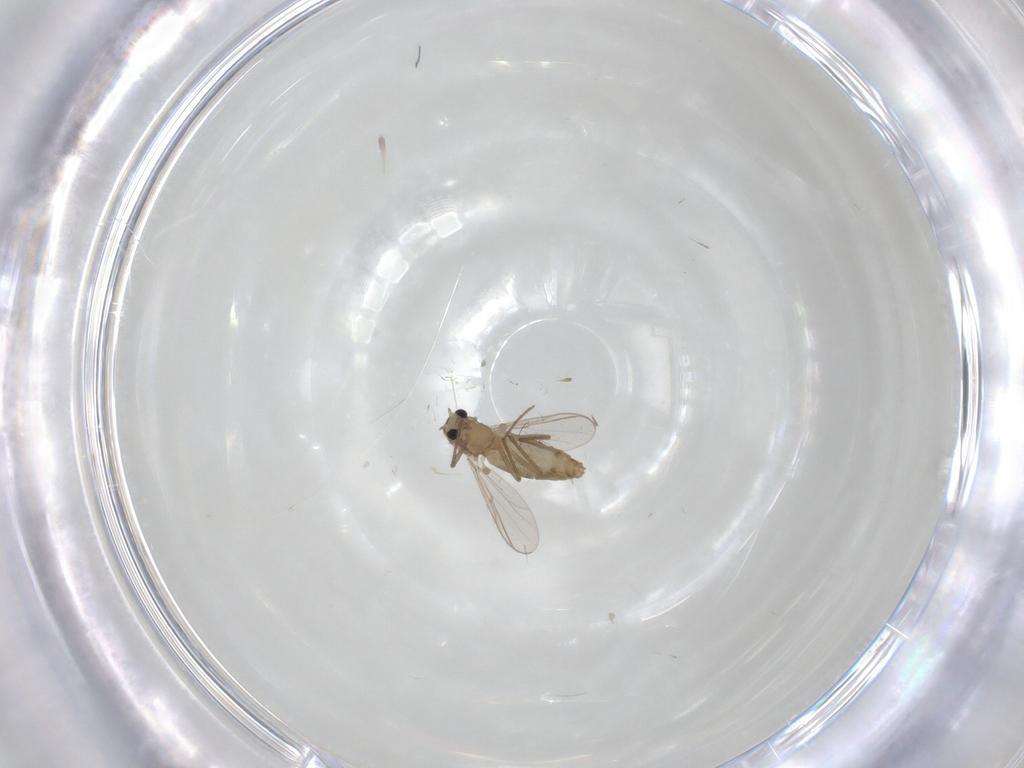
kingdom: Animalia
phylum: Arthropoda
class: Insecta
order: Diptera
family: Chironomidae
